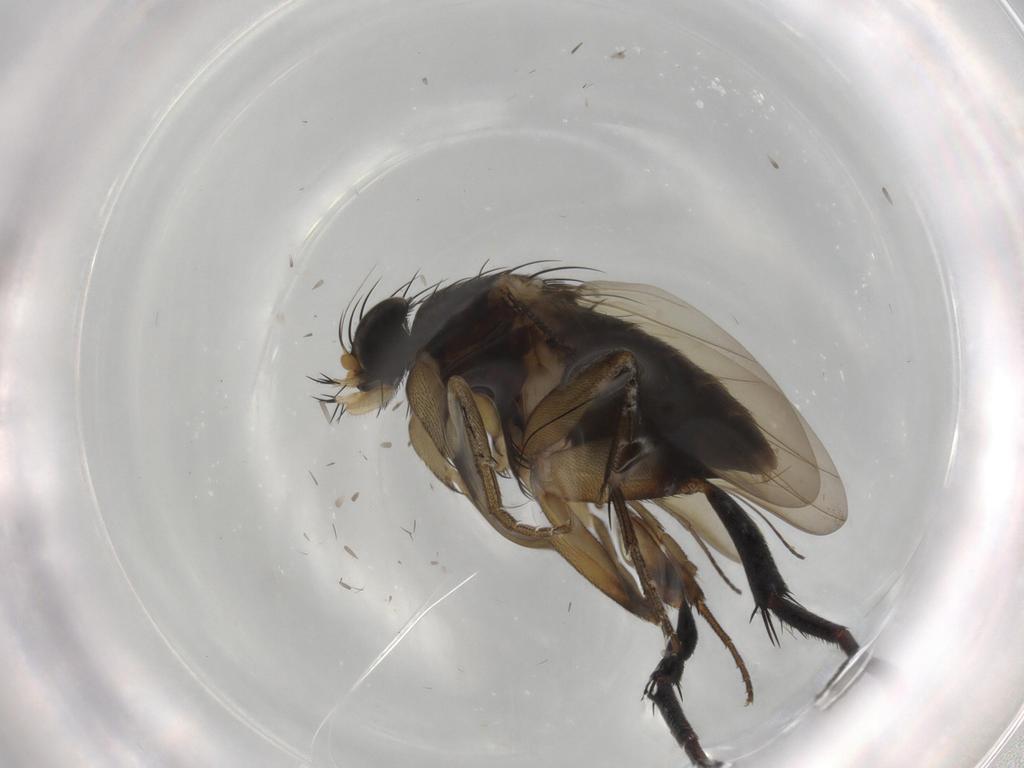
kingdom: Animalia
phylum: Arthropoda
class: Insecta
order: Diptera
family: Phoridae
